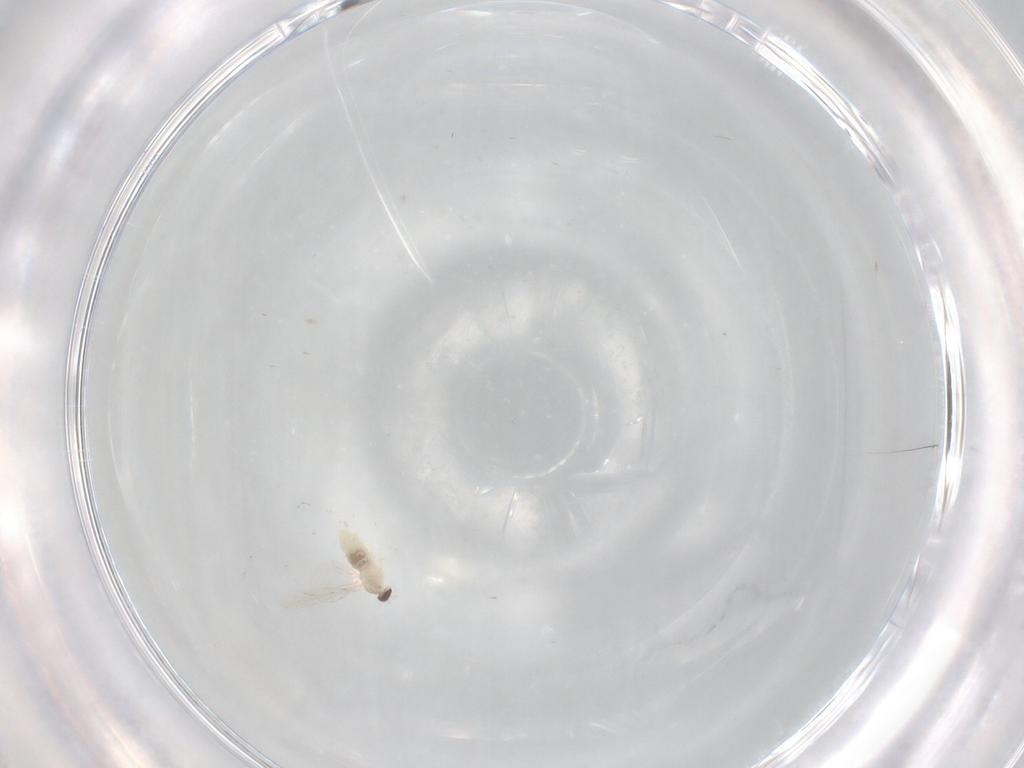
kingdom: Animalia
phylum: Arthropoda
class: Insecta
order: Diptera
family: Cecidomyiidae
